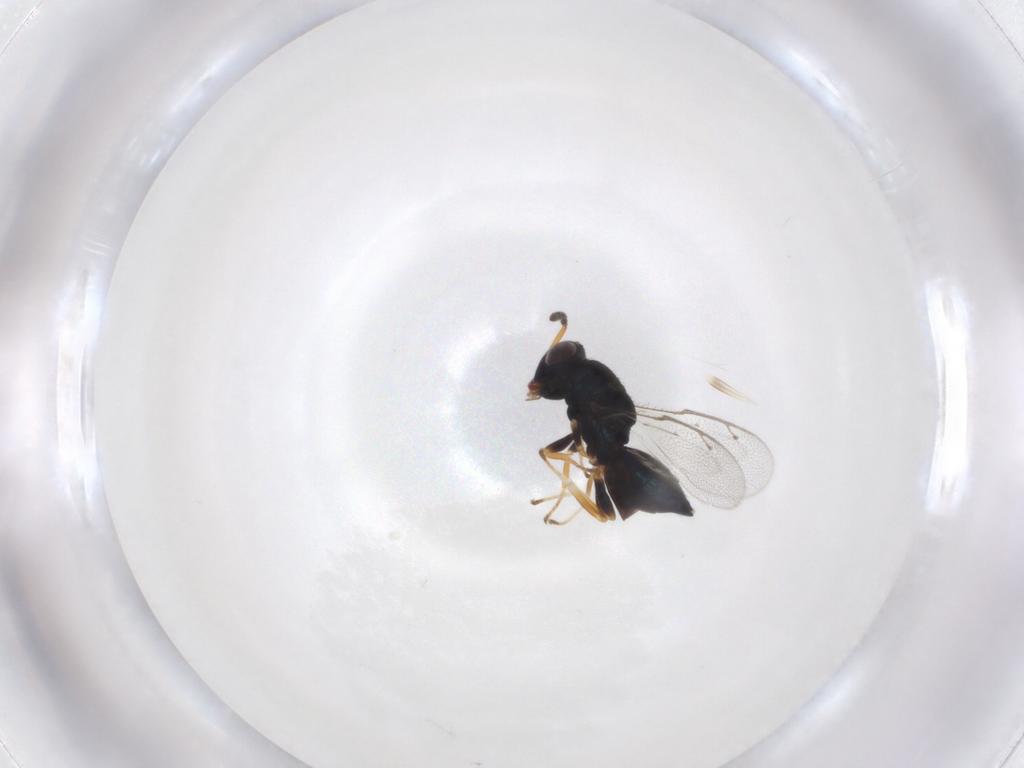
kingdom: Animalia
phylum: Arthropoda
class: Insecta
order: Hymenoptera
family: Pteromalidae
